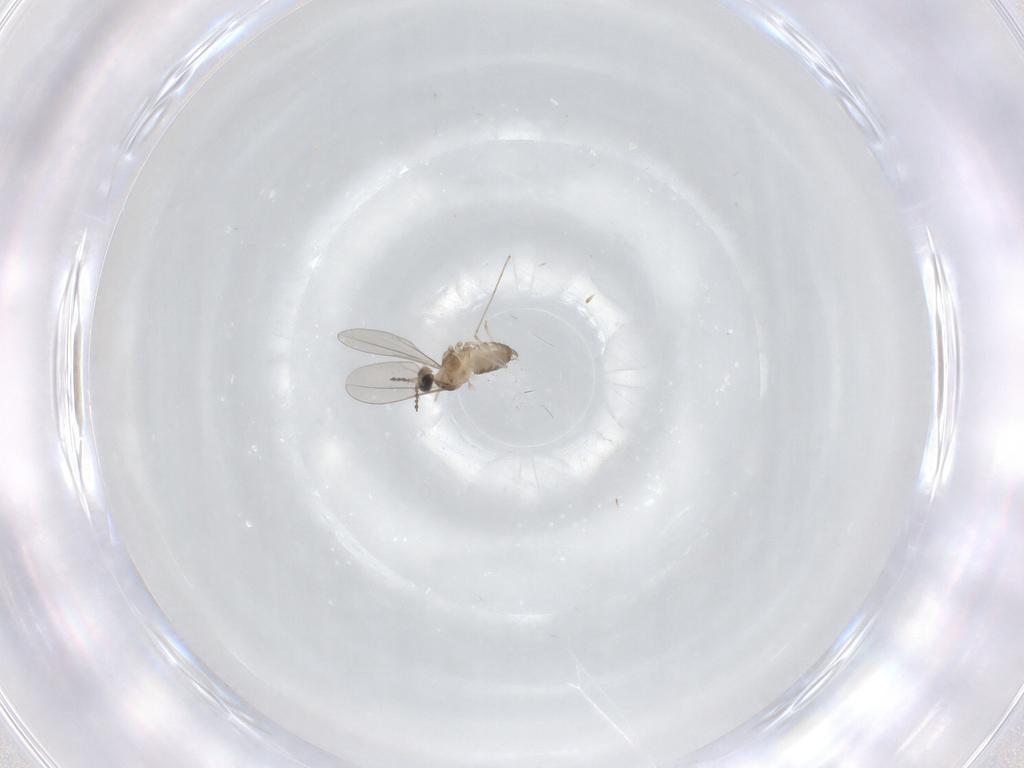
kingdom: Animalia
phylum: Arthropoda
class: Insecta
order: Diptera
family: Cecidomyiidae
